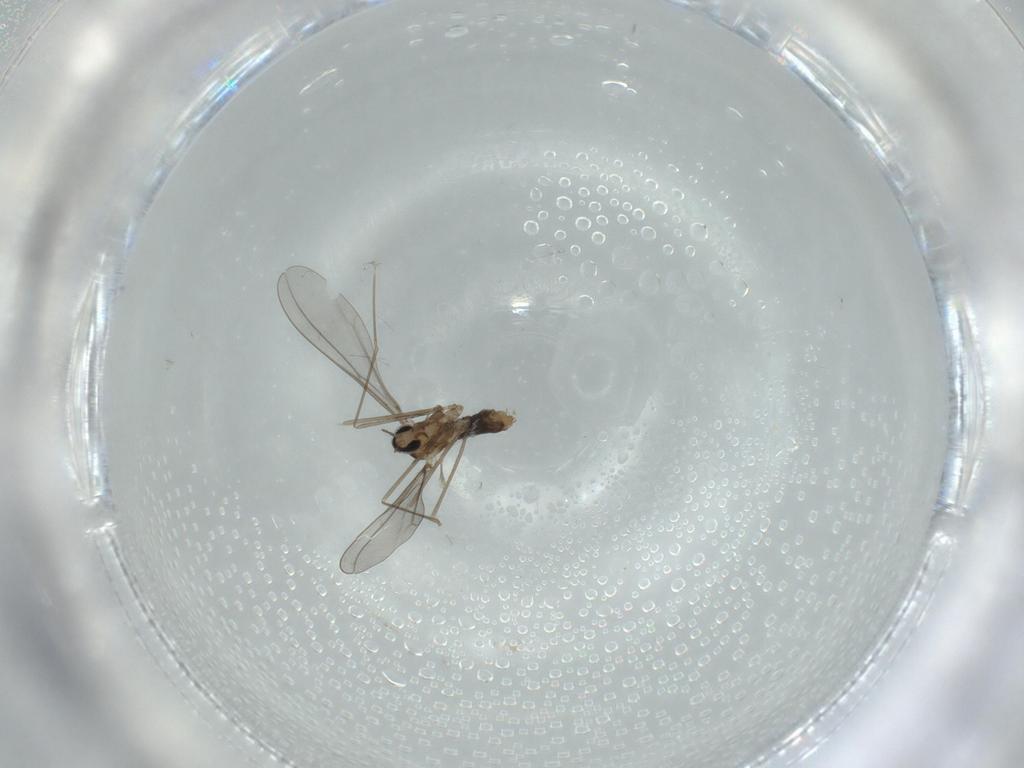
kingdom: Animalia
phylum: Arthropoda
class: Insecta
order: Diptera
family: Cecidomyiidae
